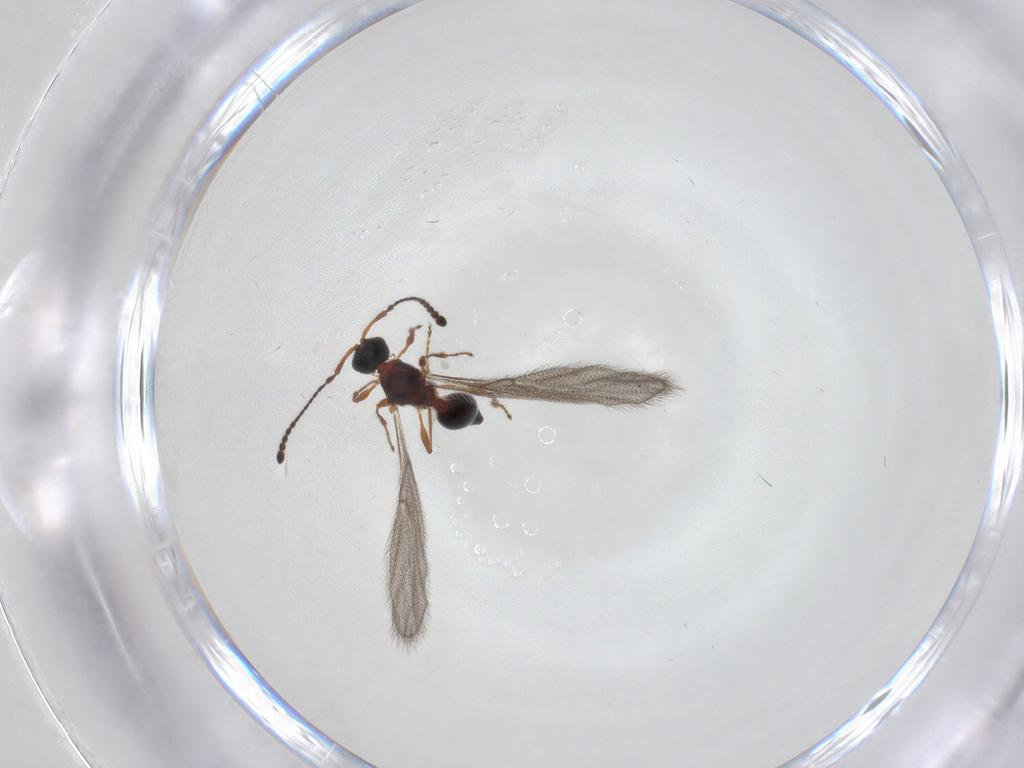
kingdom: Animalia
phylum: Arthropoda
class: Insecta
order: Hymenoptera
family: Diapriidae
